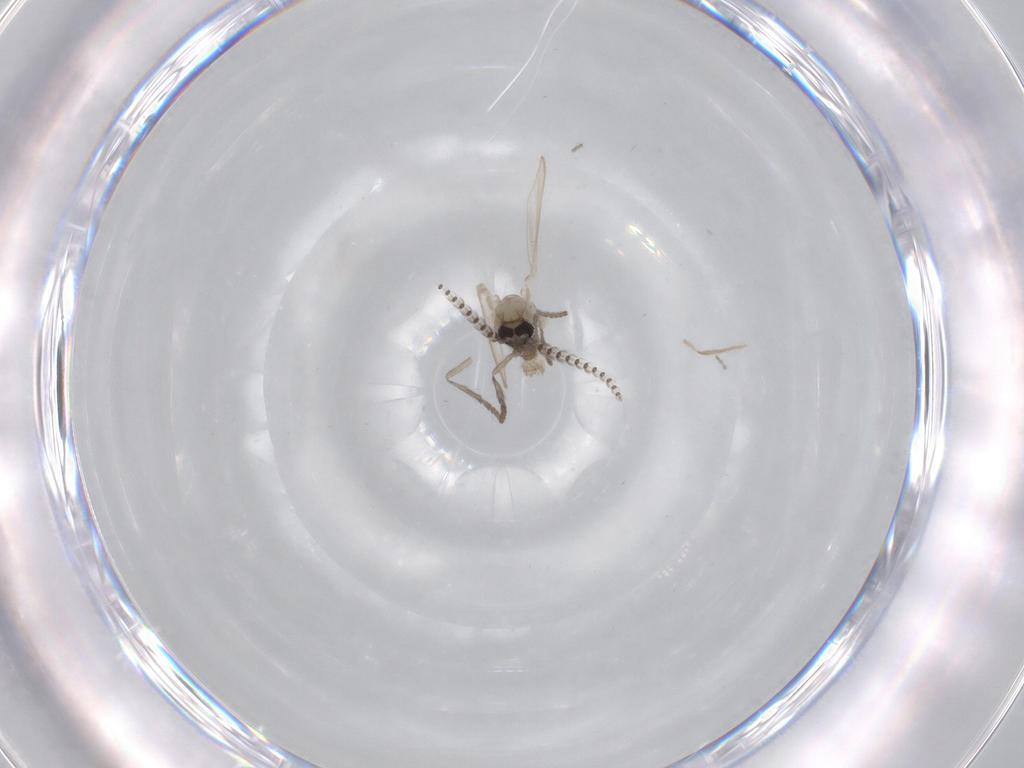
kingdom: Animalia
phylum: Arthropoda
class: Insecta
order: Diptera
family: Psychodidae
